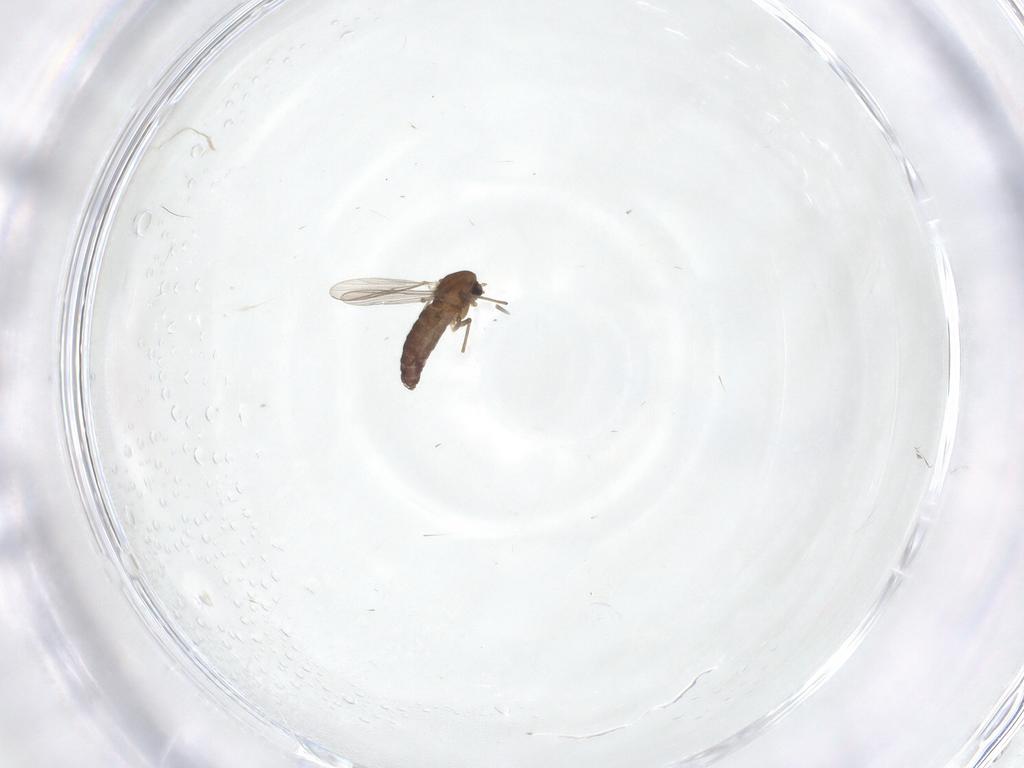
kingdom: Animalia
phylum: Arthropoda
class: Insecta
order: Diptera
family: Chironomidae
